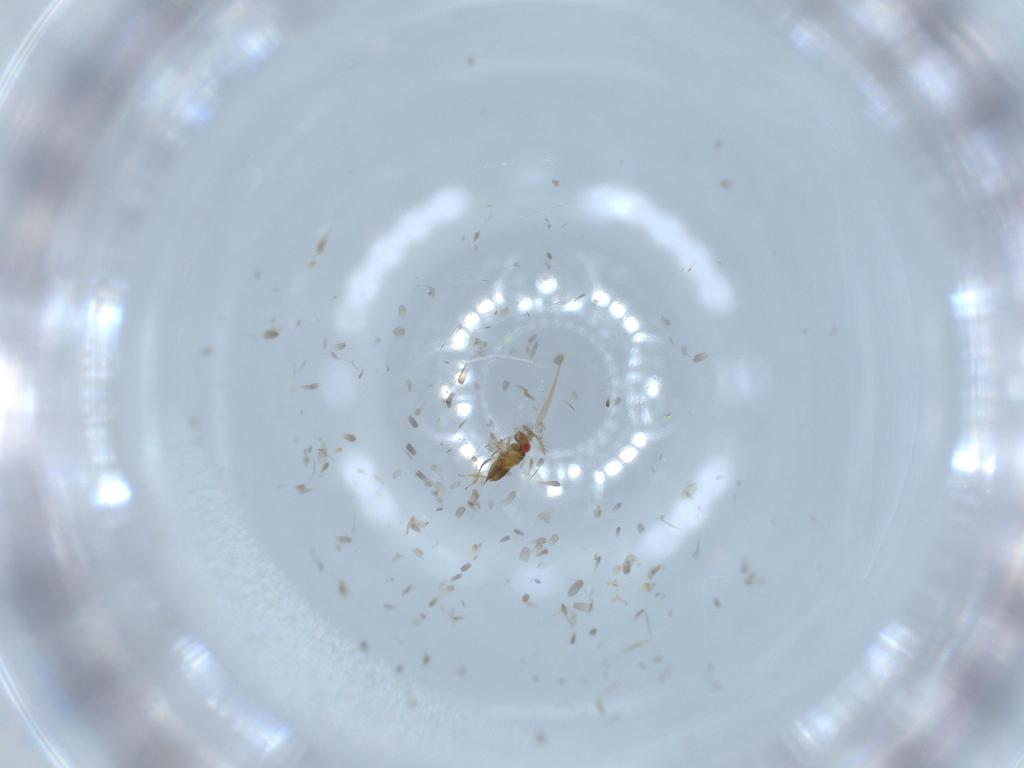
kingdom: Animalia
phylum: Arthropoda
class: Insecta
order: Hymenoptera
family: Trichogrammatidae
